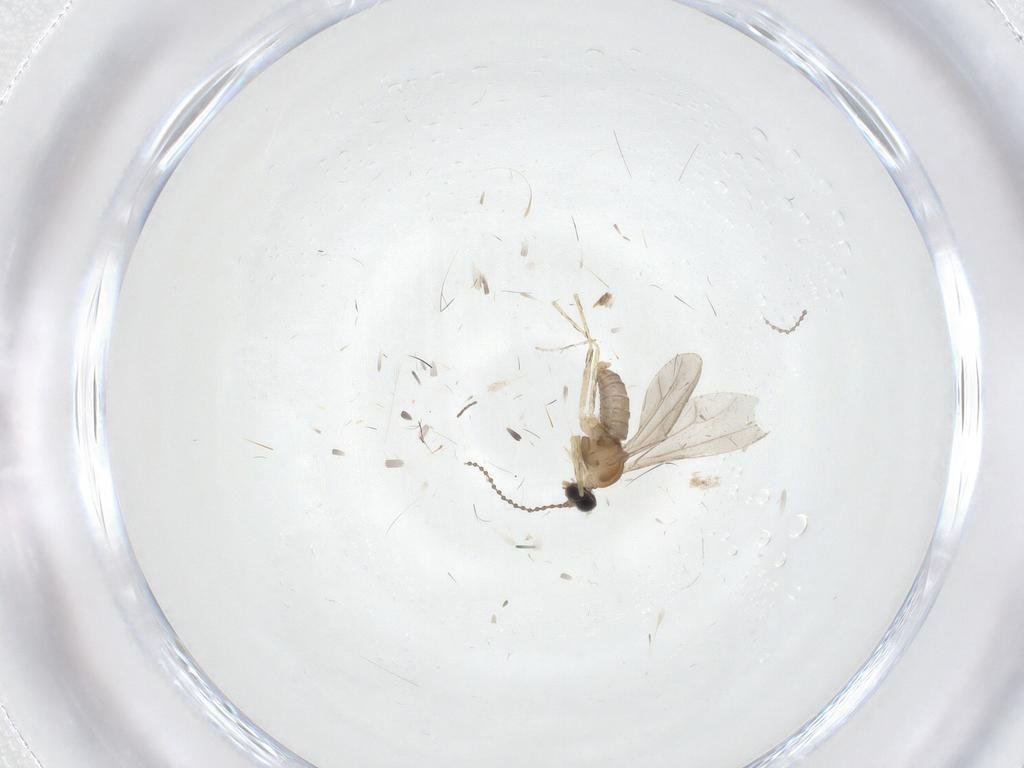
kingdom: Animalia
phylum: Arthropoda
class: Insecta
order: Diptera
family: Cecidomyiidae
